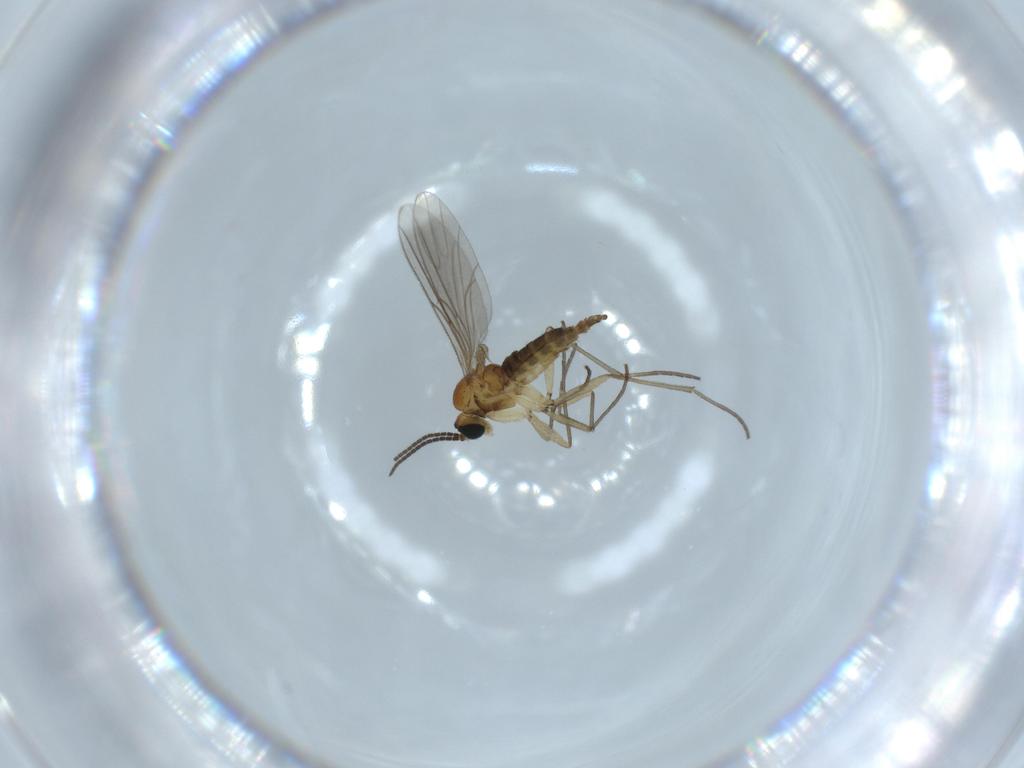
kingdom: Animalia
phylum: Arthropoda
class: Insecta
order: Diptera
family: Sciaridae
